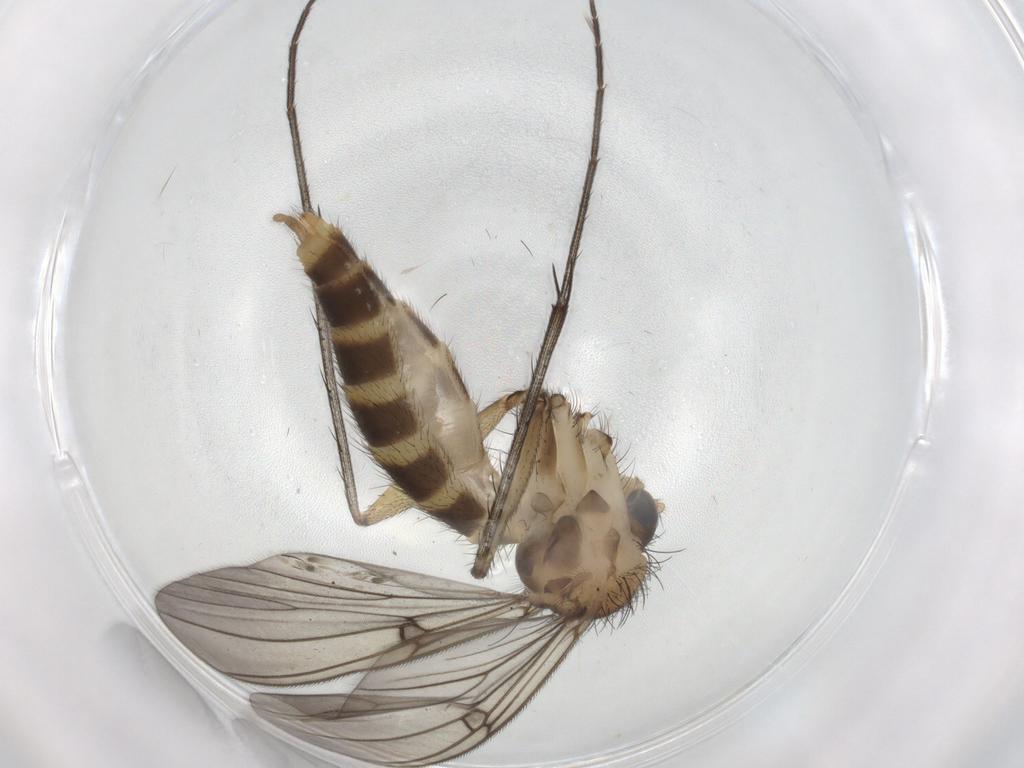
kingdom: Animalia
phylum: Arthropoda
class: Insecta
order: Diptera
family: Mycetophilidae
